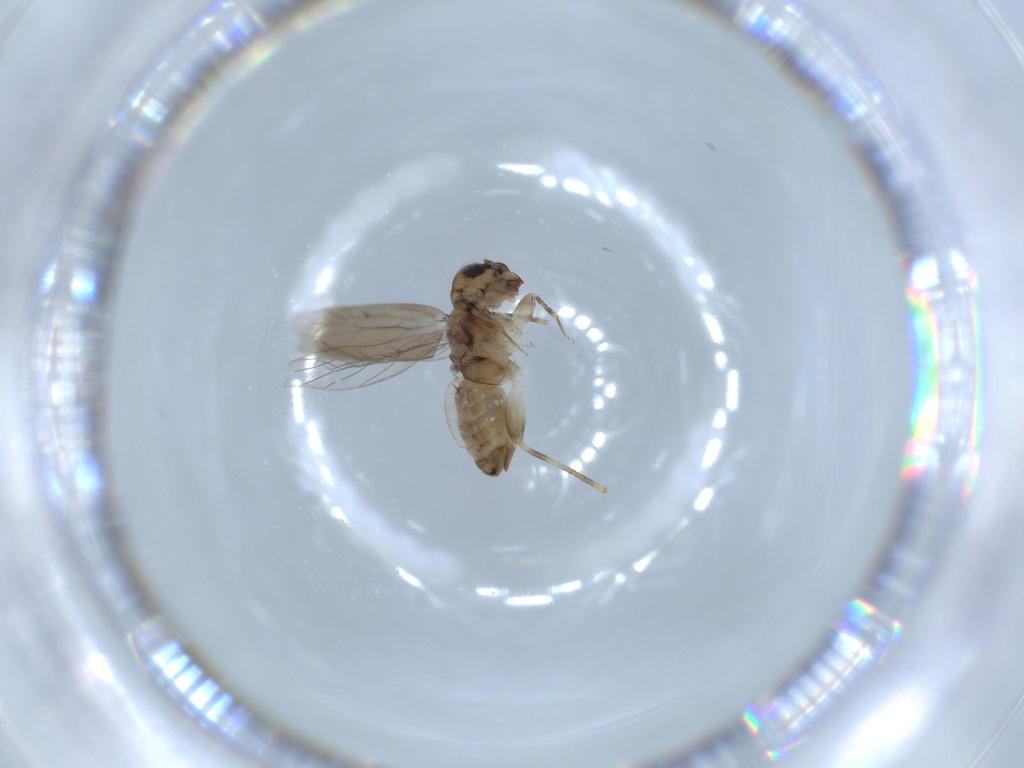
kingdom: Animalia
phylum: Arthropoda
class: Insecta
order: Psocodea
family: Lepidopsocidae
